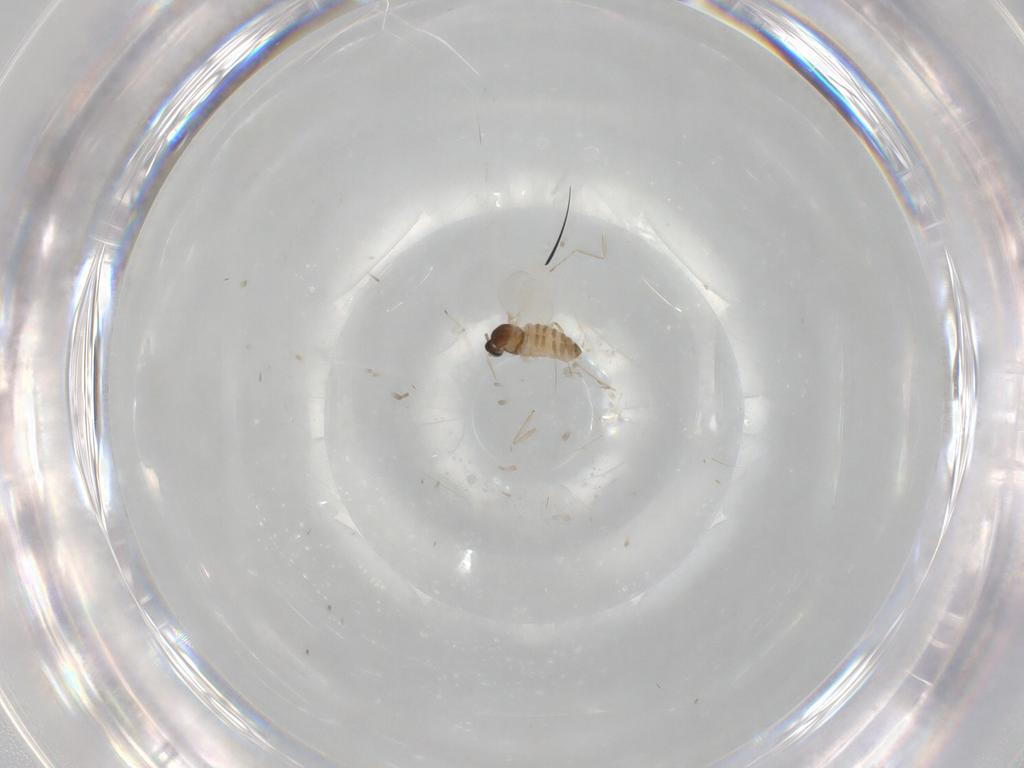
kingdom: Animalia
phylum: Arthropoda
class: Insecta
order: Diptera
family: Cecidomyiidae
